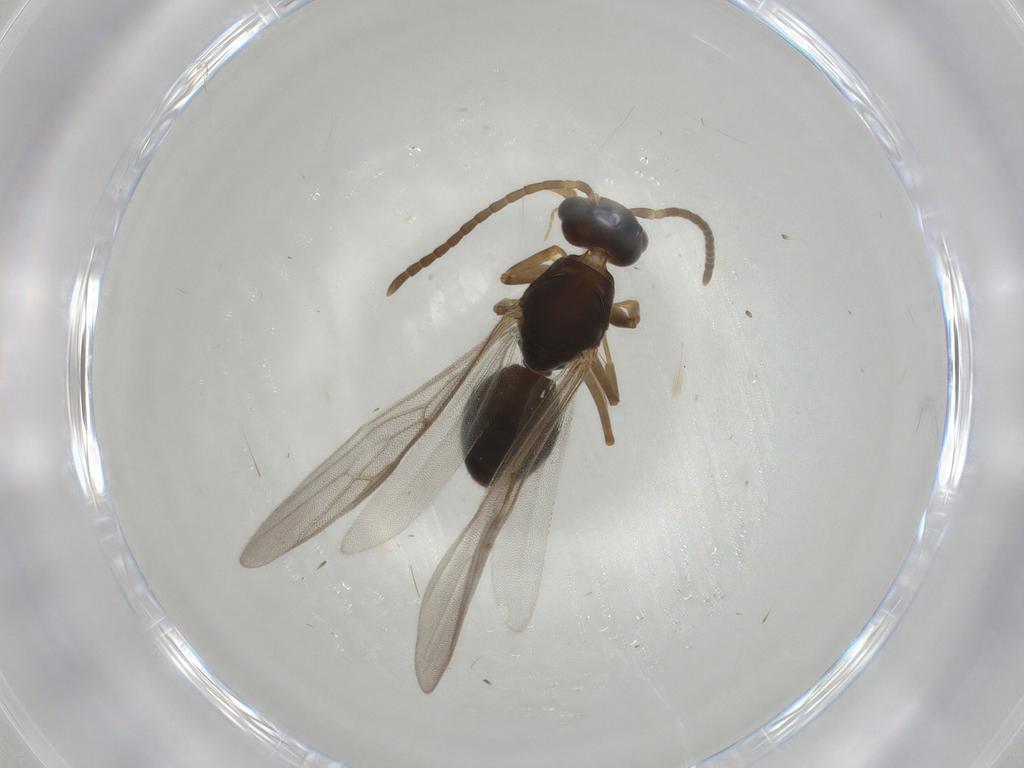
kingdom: Animalia
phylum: Arthropoda
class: Insecta
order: Hymenoptera
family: Formicidae
